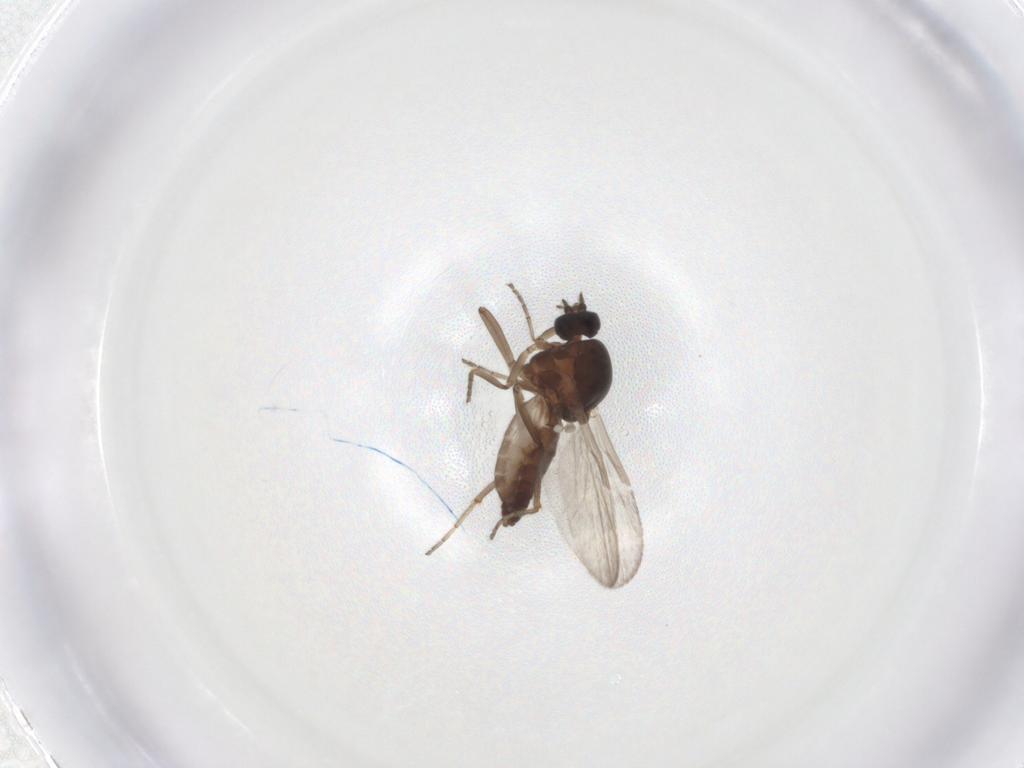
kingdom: Animalia
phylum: Arthropoda
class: Insecta
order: Diptera
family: Ceratopogonidae
